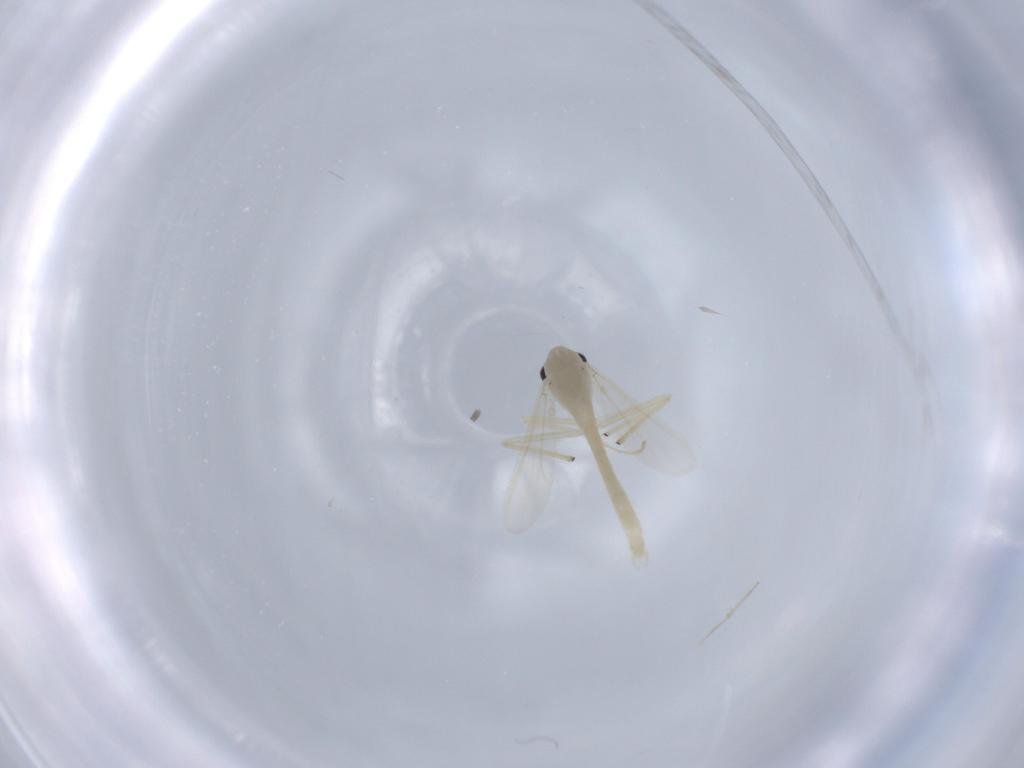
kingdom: Animalia
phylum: Arthropoda
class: Insecta
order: Diptera
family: Chironomidae
